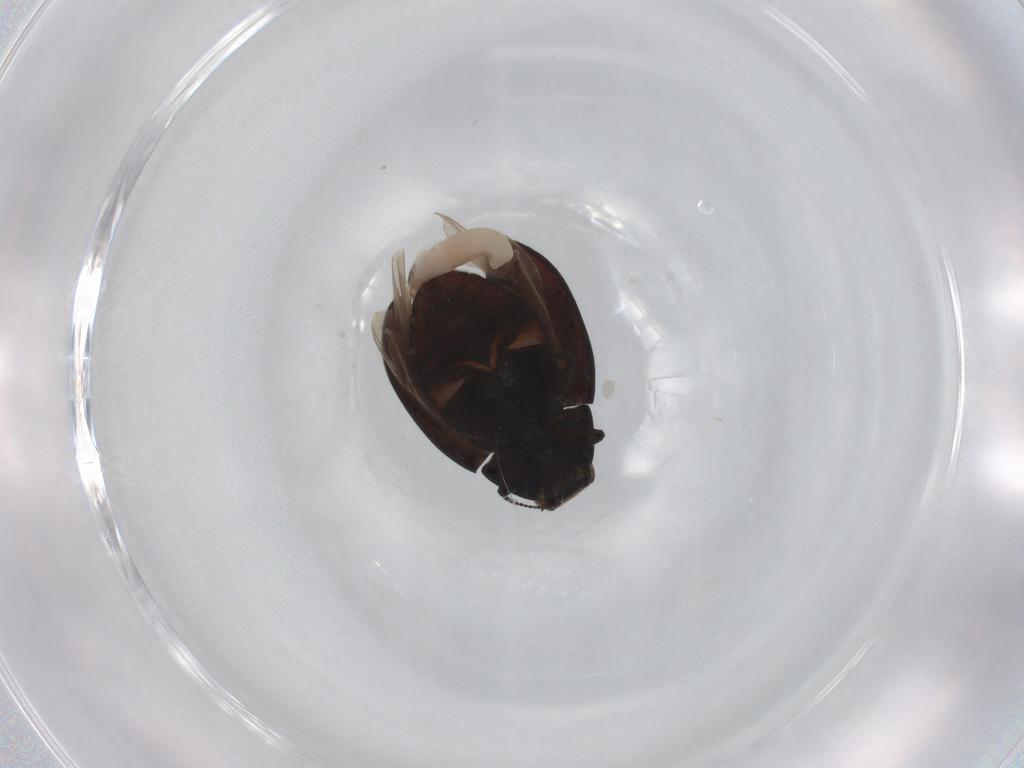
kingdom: Animalia
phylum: Arthropoda
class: Insecta
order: Coleoptera
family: Limnichidae
